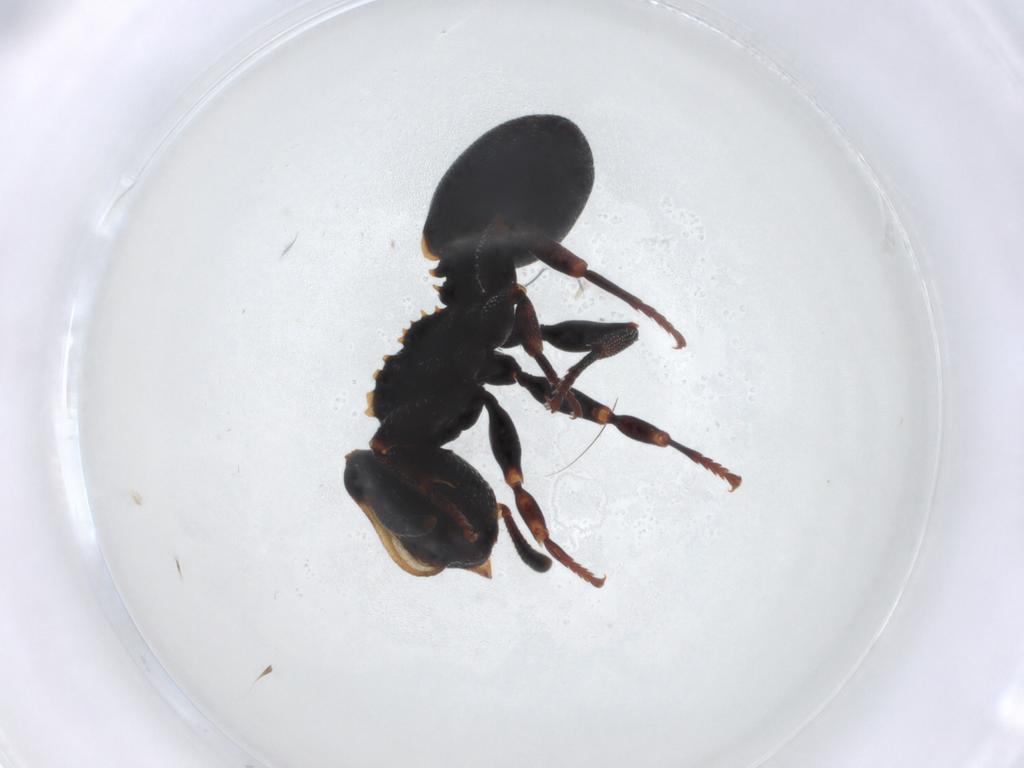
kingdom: Animalia
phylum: Arthropoda
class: Insecta
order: Hymenoptera
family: Formicidae
